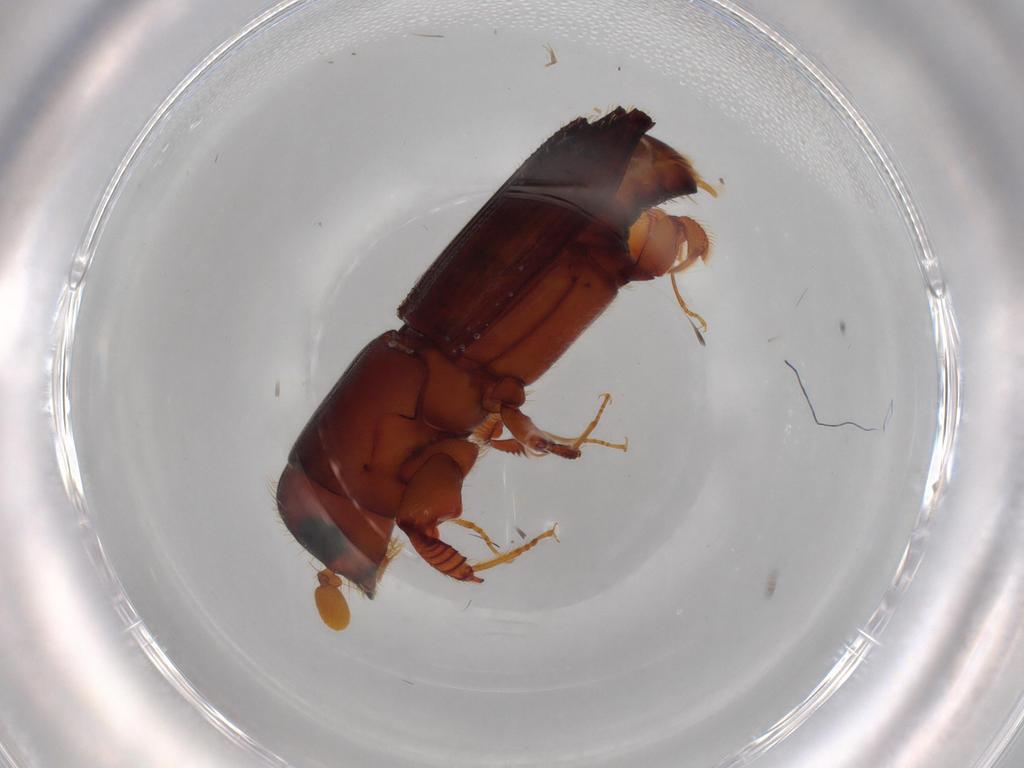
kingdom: Animalia
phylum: Arthropoda
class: Insecta
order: Coleoptera
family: Curculionidae
